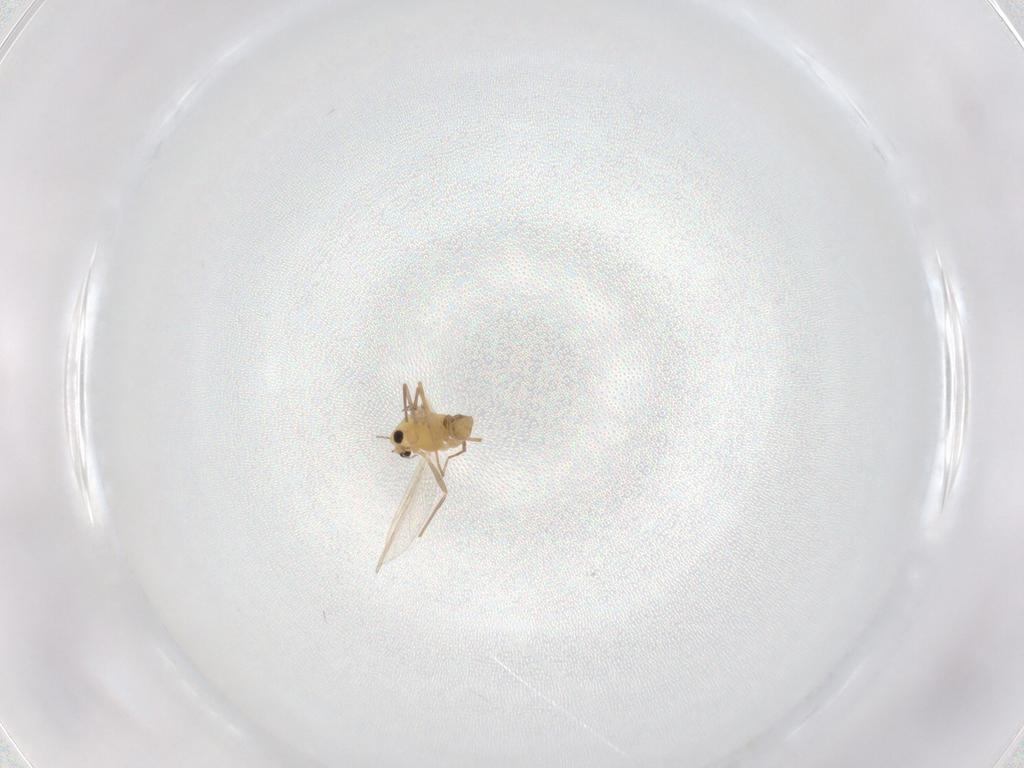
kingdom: Animalia
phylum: Arthropoda
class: Insecta
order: Diptera
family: Chironomidae
